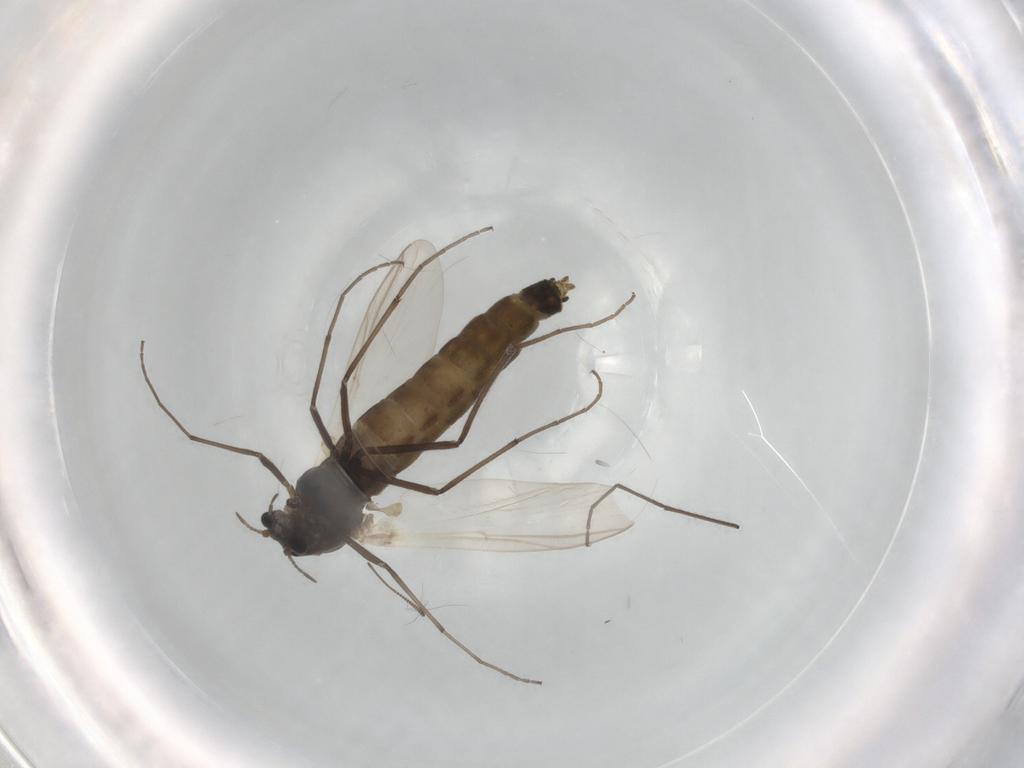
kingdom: Animalia
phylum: Arthropoda
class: Insecta
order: Diptera
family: Chironomidae
